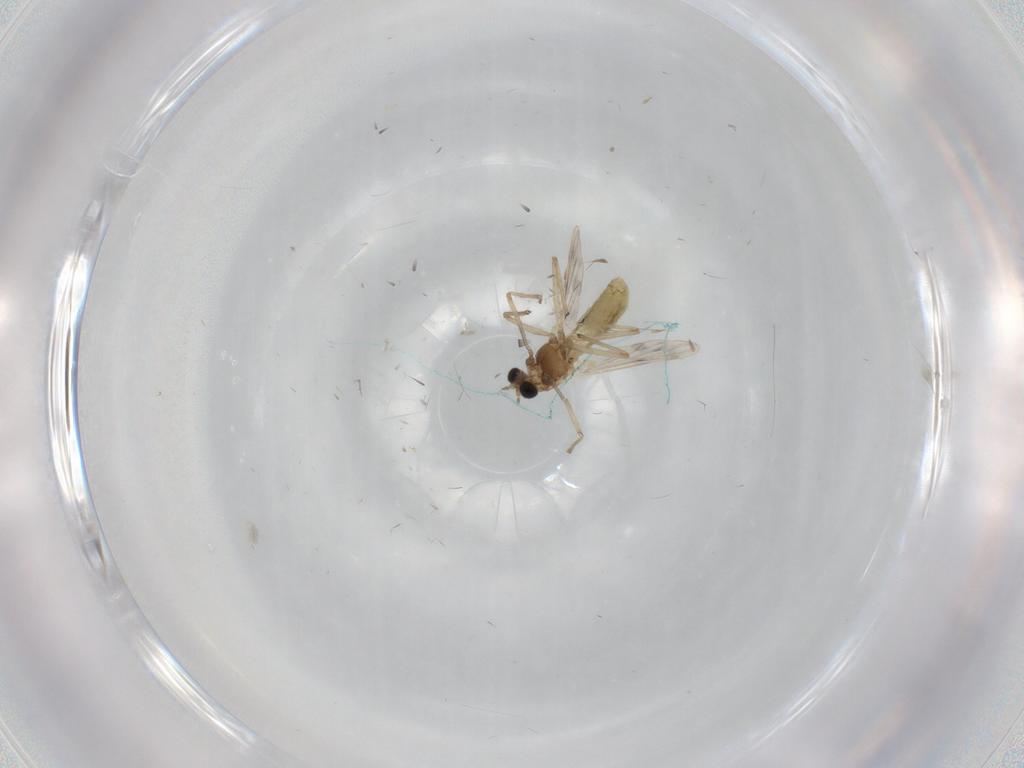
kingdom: Animalia
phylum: Arthropoda
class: Insecta
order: Diptera
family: Chironomidae
